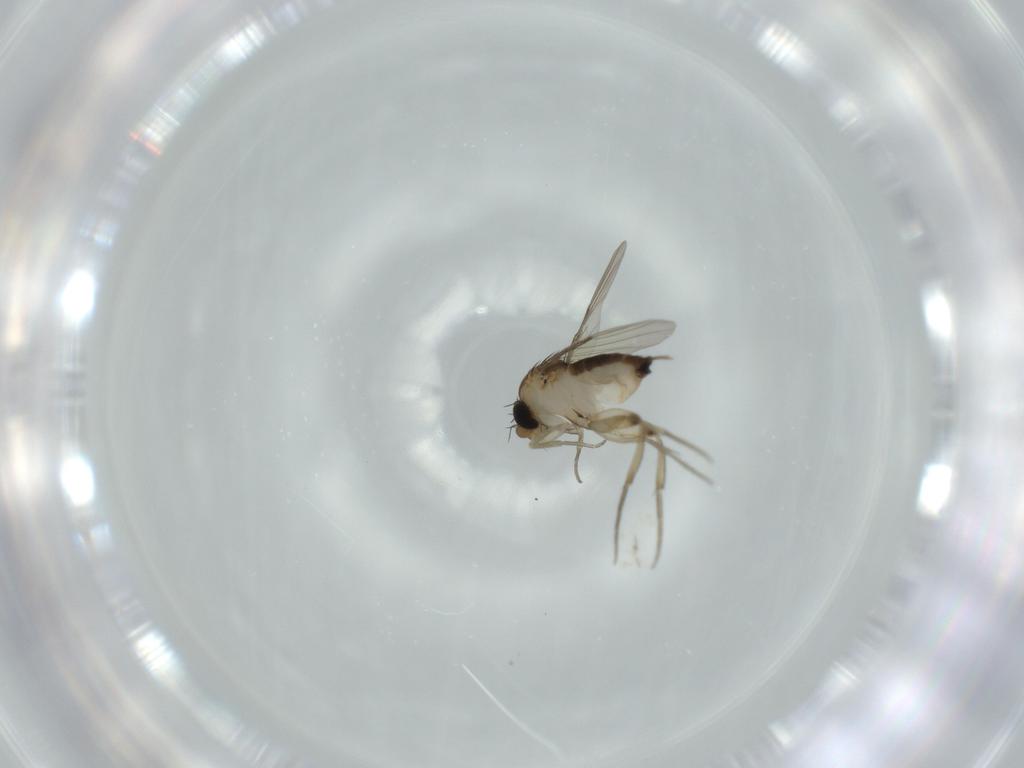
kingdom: Animalia
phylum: Arthropoda
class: Insecta
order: Diptera
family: Phoridae
